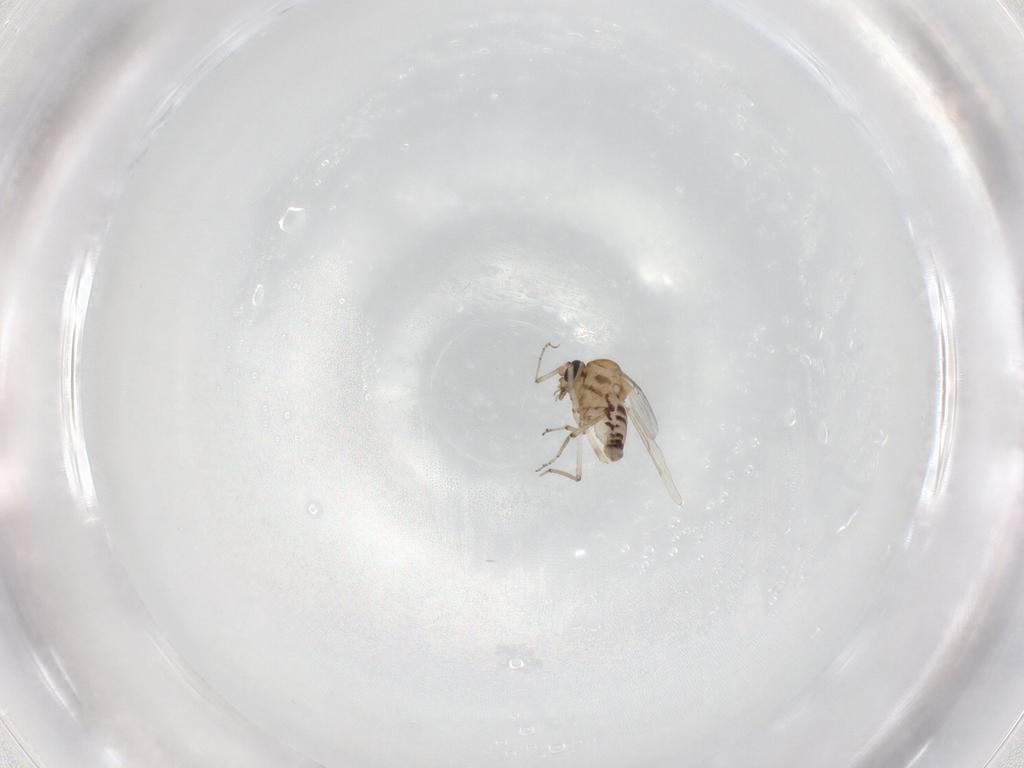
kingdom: Animalia
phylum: Arthropoda
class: Insecta
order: Diptera
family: Ceratopogonidae
